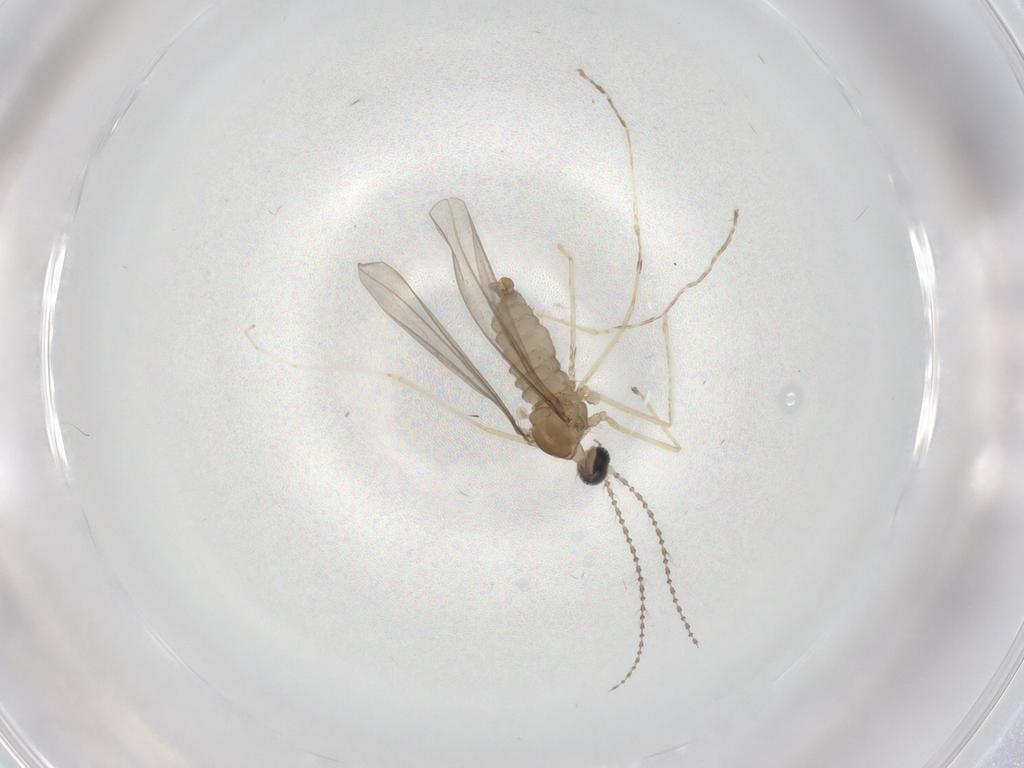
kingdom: Animalia
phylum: Arthropoda
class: Insecta
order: Diptera
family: Cecidomyiidae
